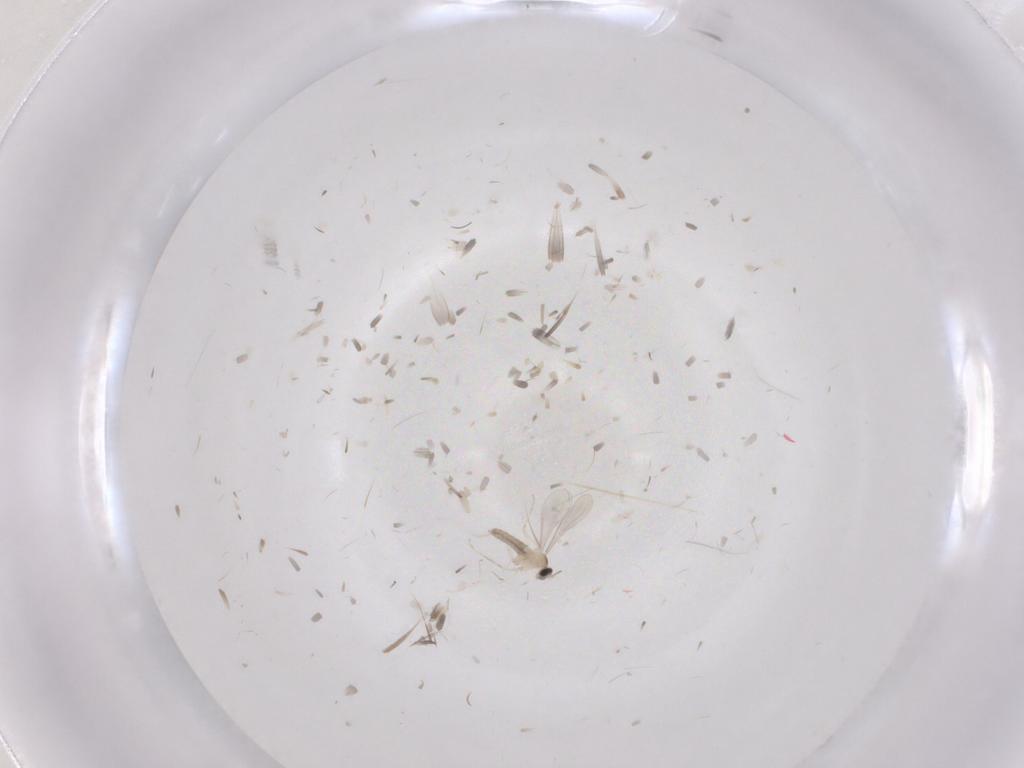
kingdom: Animalia
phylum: Arthropoda
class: Insecta
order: Diptera
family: Cecidomyiidae
